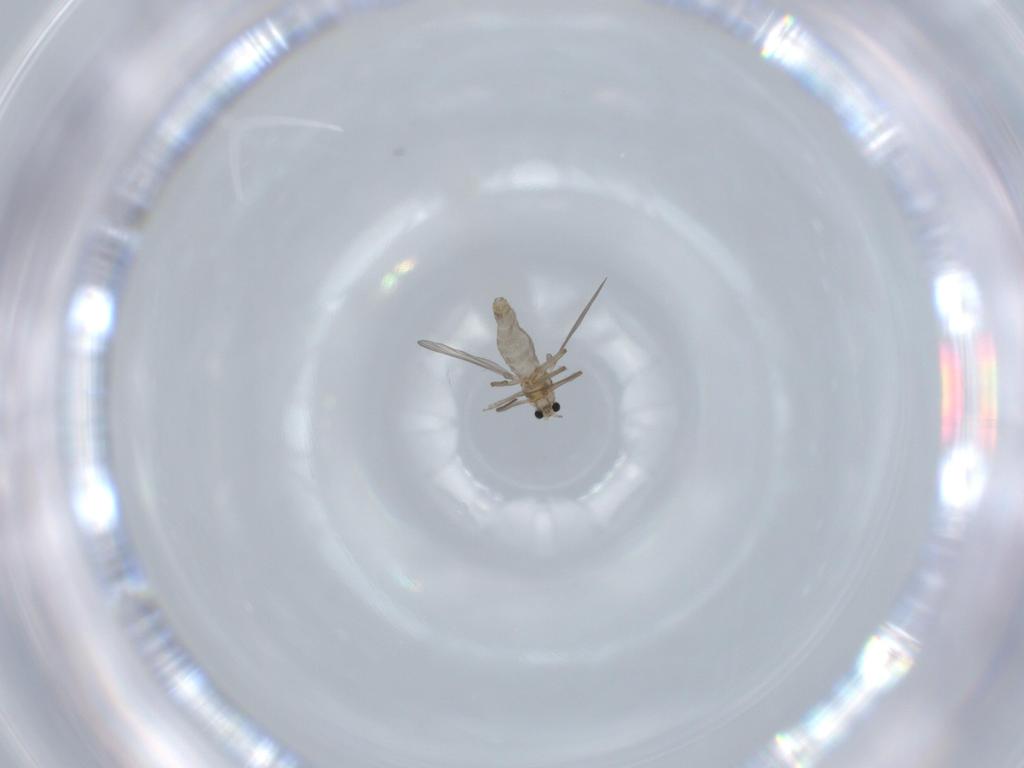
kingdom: Animalia
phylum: Arthropoda
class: Insecta
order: Diptera
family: Chironomidae
